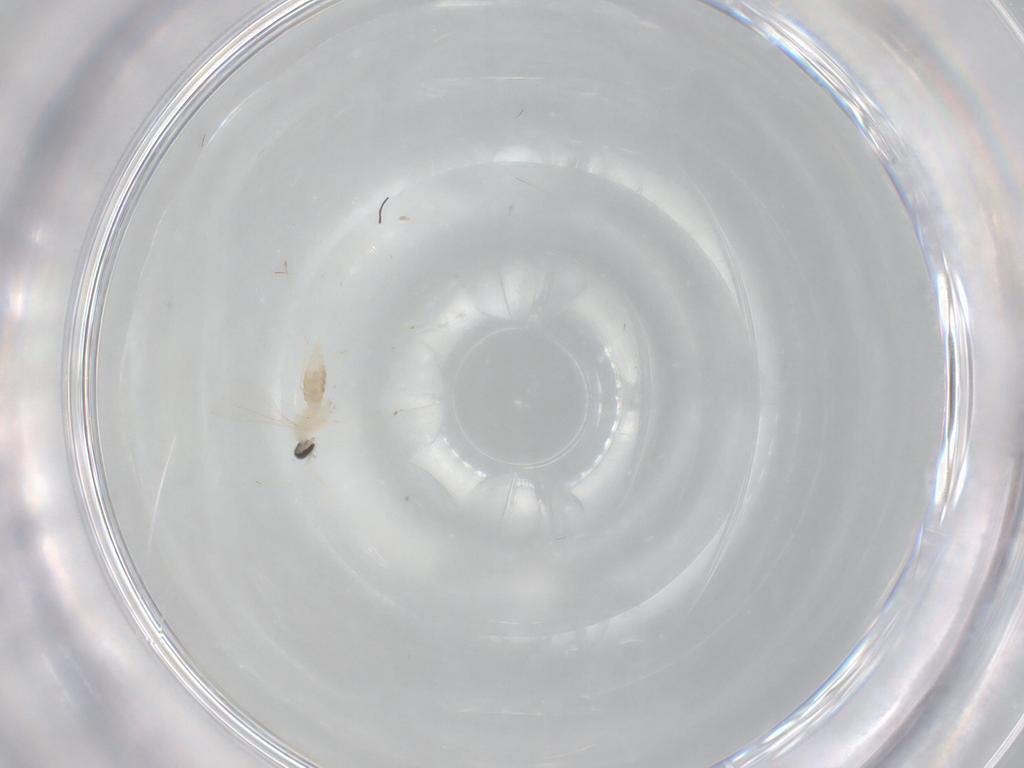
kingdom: Animalia
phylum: Arthropoda
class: Insecta
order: Diptera
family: Cecidomyiidae
